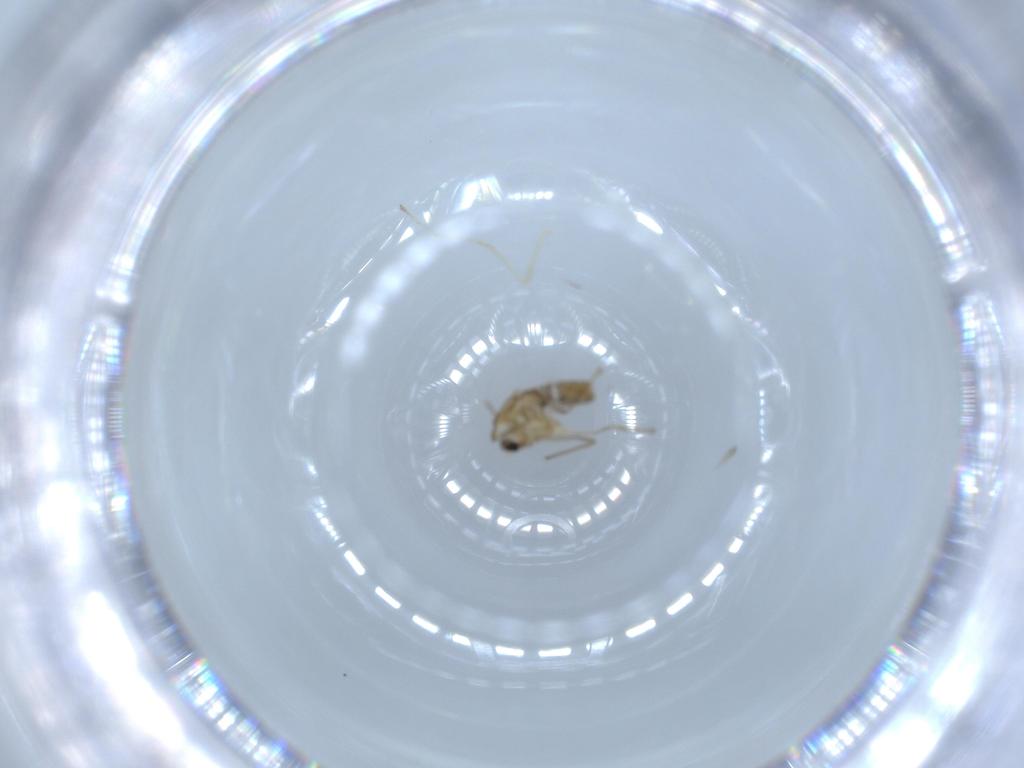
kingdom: Animalia
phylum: Arthropoda
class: Insecta
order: Diptera
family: Chironomidae
